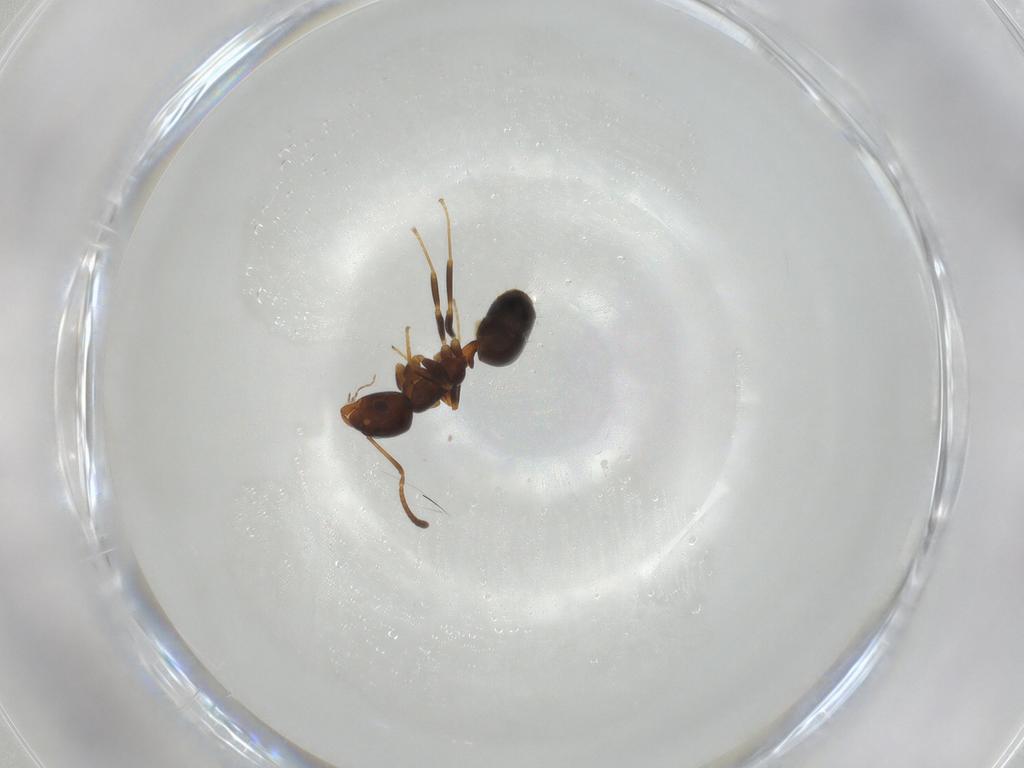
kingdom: Animalia
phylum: Arthropoda
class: Insecta
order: Hymenoptera
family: Formicidae
